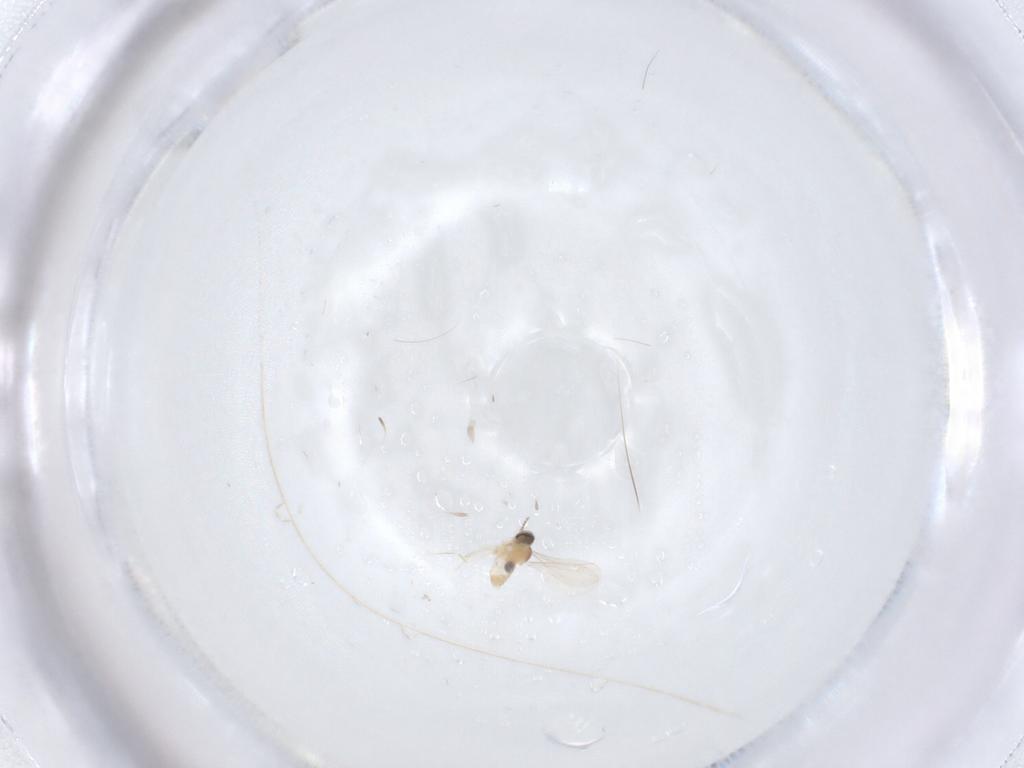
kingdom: Animalia
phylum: Arthropoda
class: Insecta
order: Diptera
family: Cecidomyiidae
